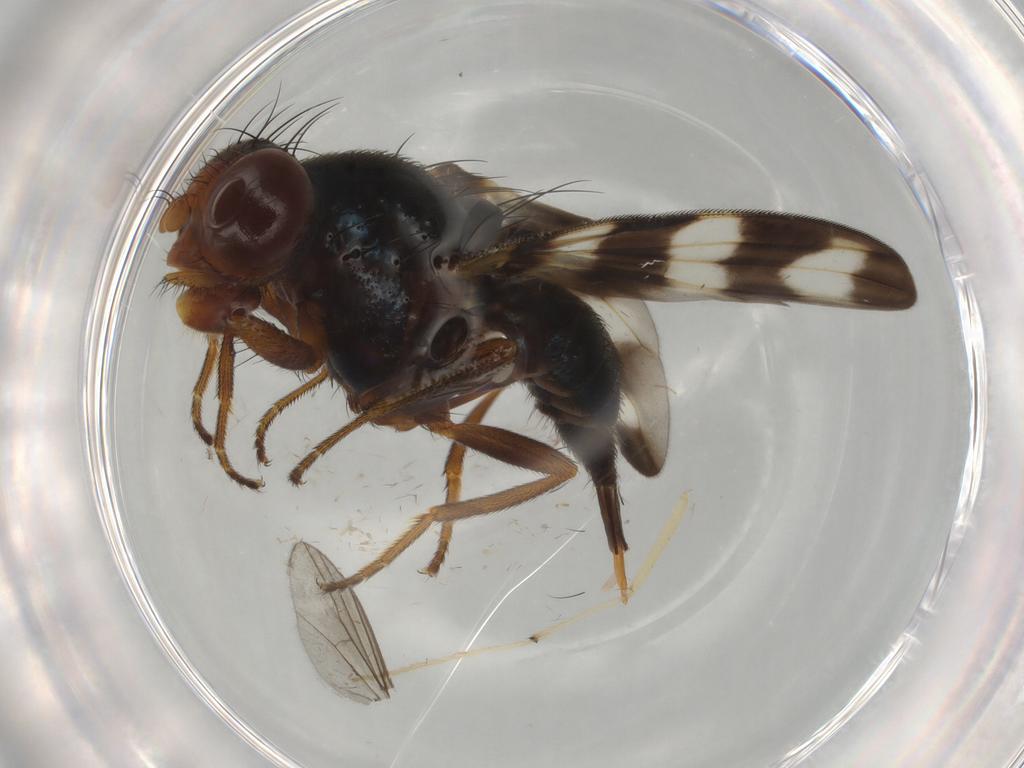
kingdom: Animalia
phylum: Arthropoda
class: Insecta
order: Diptera
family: Ulidiidae
